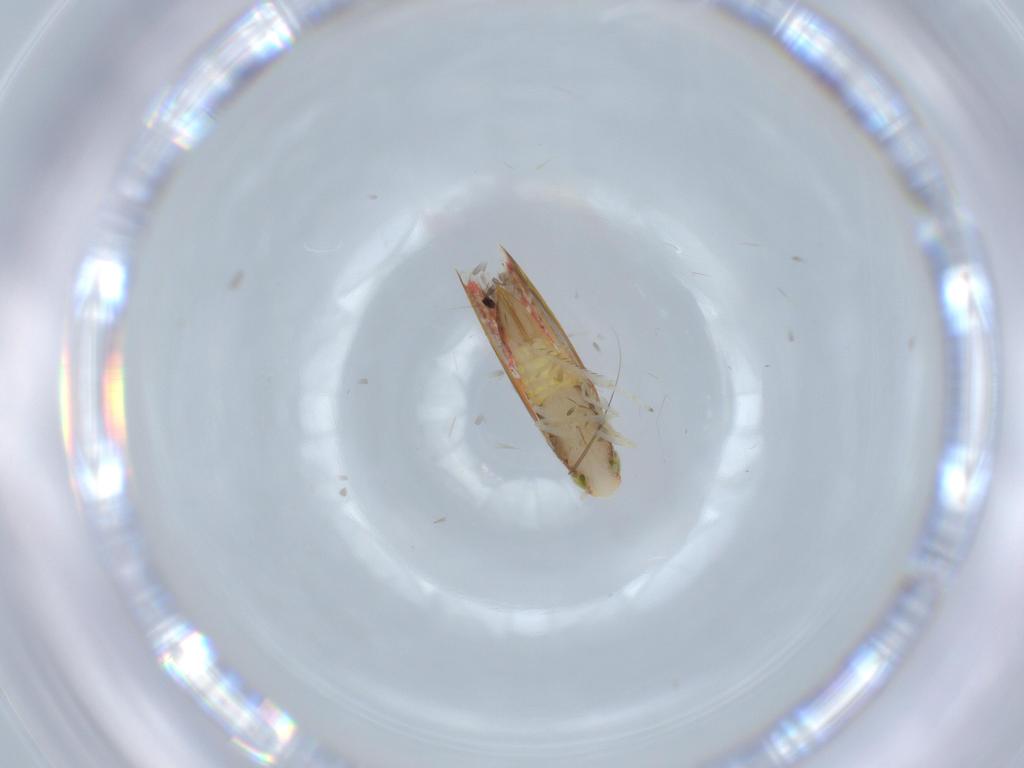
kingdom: Animalia
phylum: Arthropoda
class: Insecta
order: Hemiptera
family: Cicadellidae
